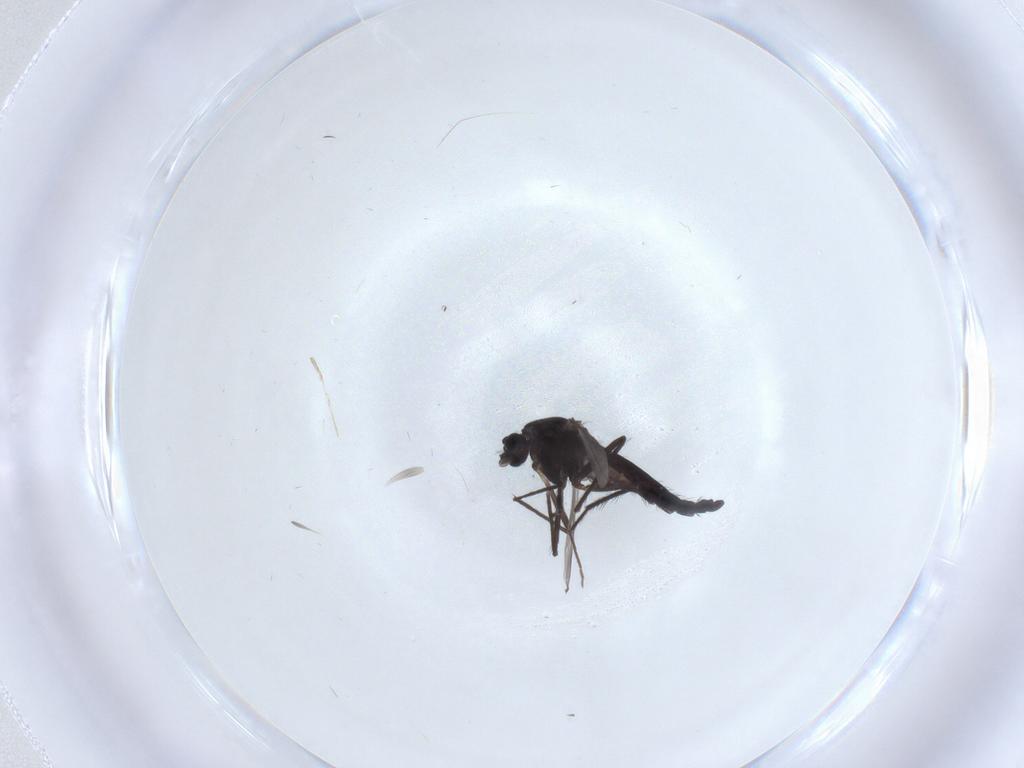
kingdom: Animalia
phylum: Arthropoda
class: Insecta
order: Diptera
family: Chironomidae
